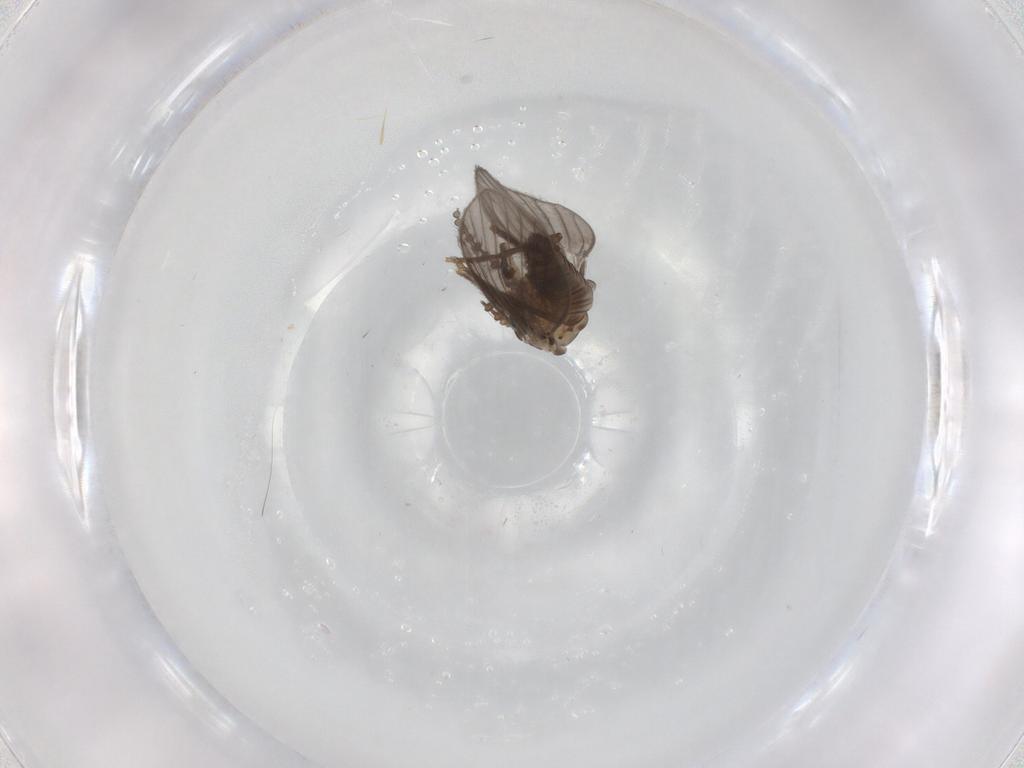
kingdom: Animalia
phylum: Arthropoda
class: Insecta
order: Diptera
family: Psychodidae
